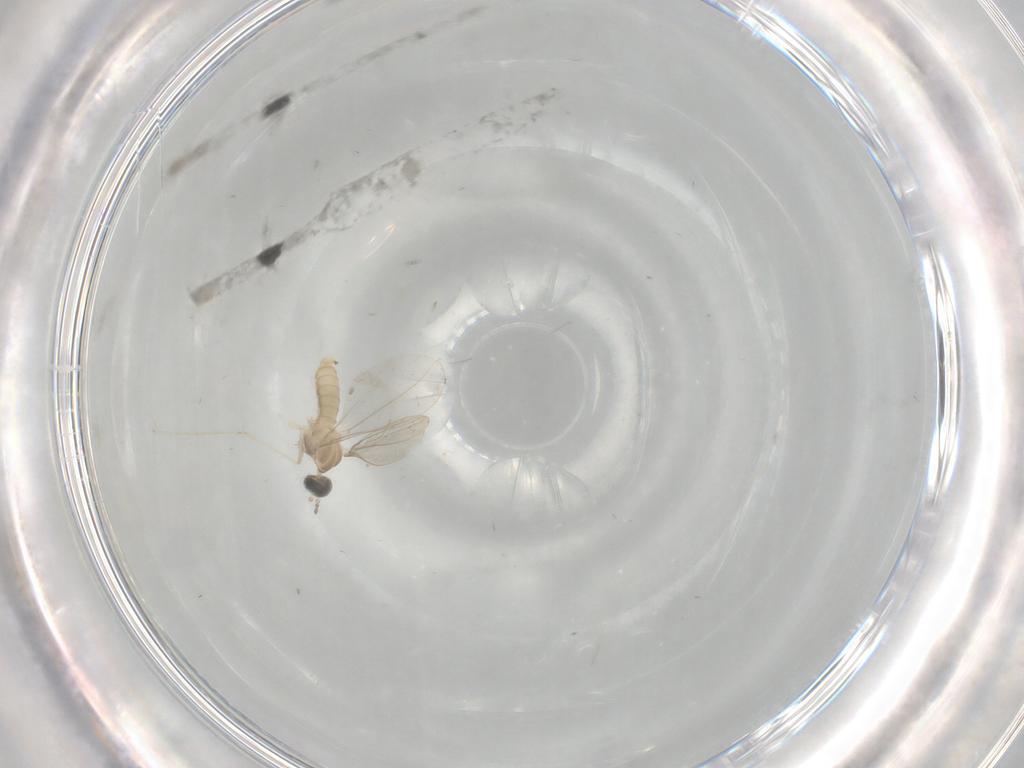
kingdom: Animalia
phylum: Arthropoda
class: Insecta
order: Diptera
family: Cecidomyiidae
